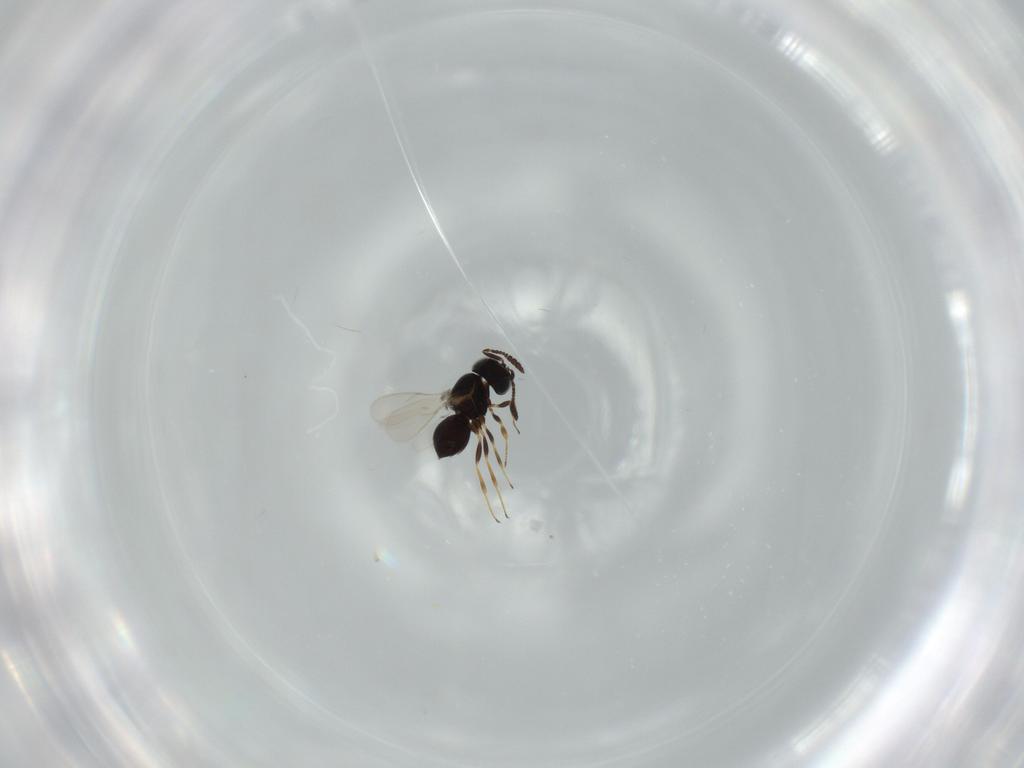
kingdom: Animalia
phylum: Arthropoda
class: Insecta
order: Hymenoptera
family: Scelionidae
